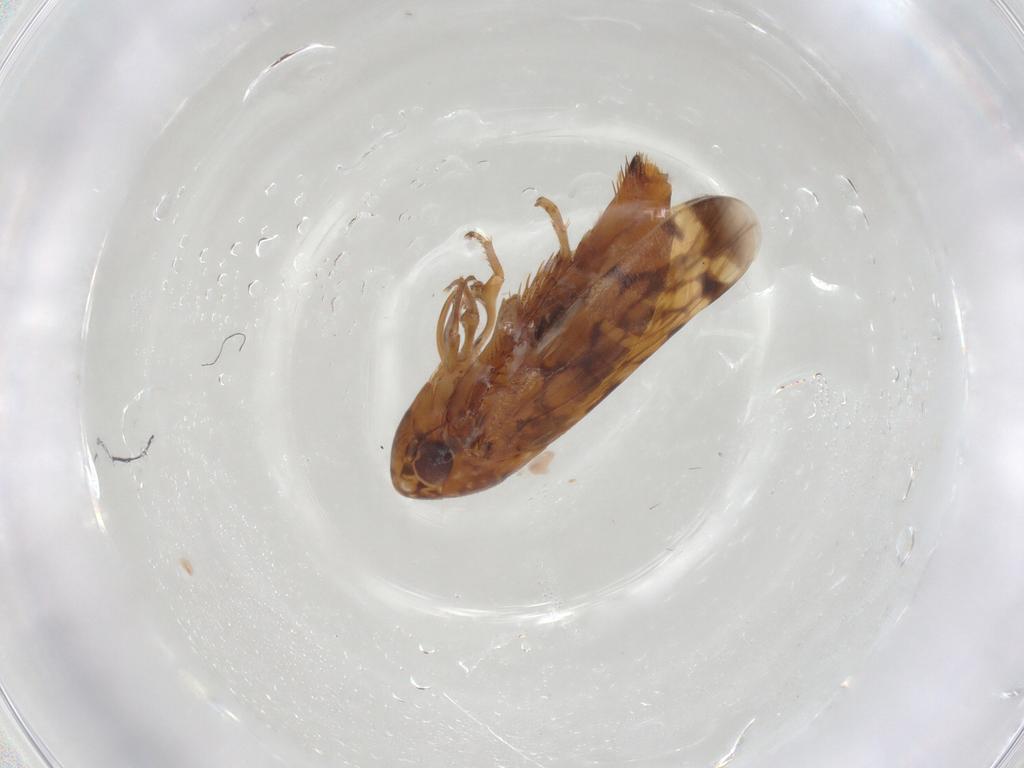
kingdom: Animalia
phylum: Arthropoda
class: Insecta
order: Hemiptera
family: Cicadellidae
